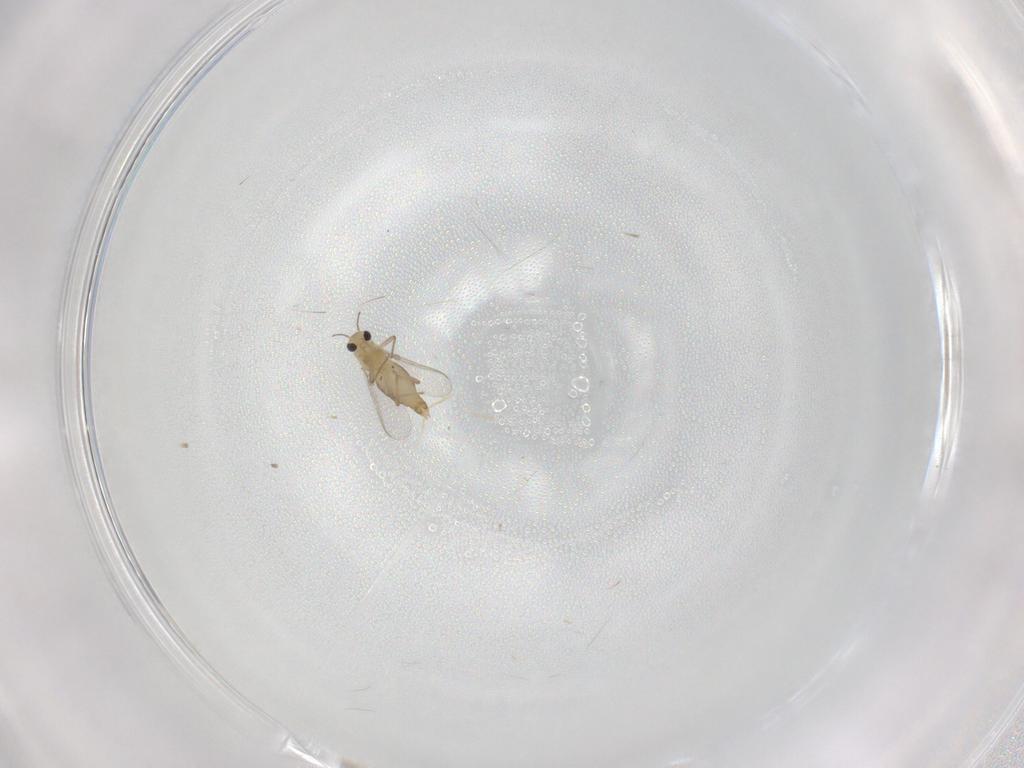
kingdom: Animalia
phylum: Arthropoda
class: Insecta
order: Diptera
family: Chironomidae
